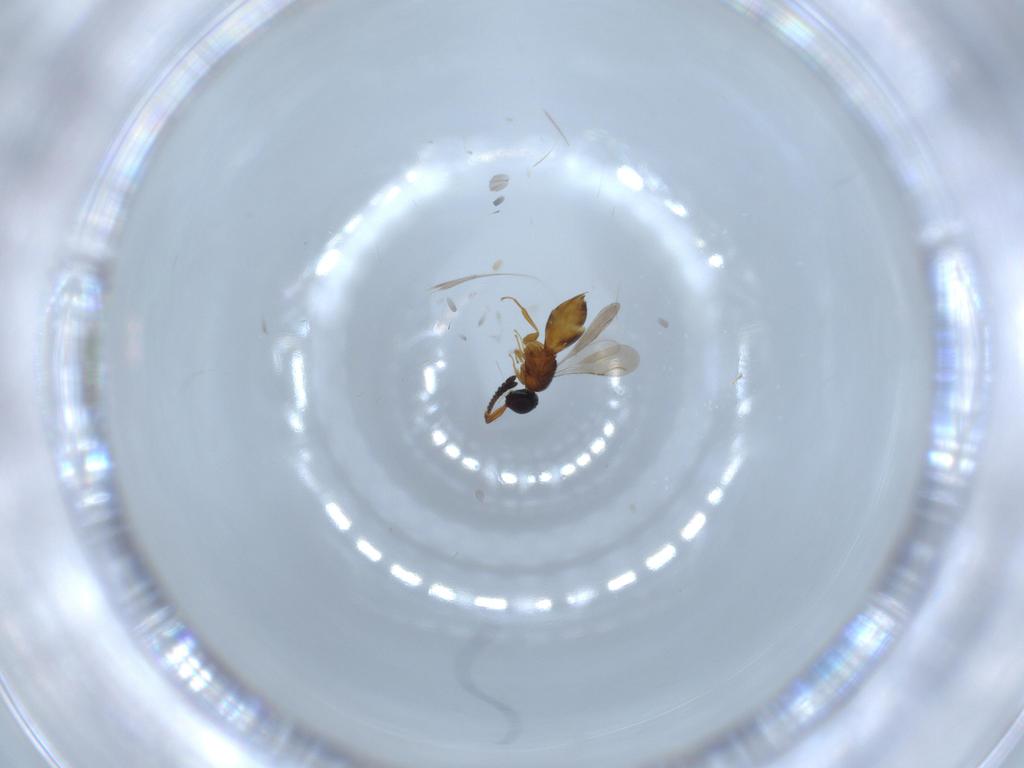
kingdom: Animalia
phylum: Arthropoda
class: Insecta
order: Hymenoptera
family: Ceraphronidae
